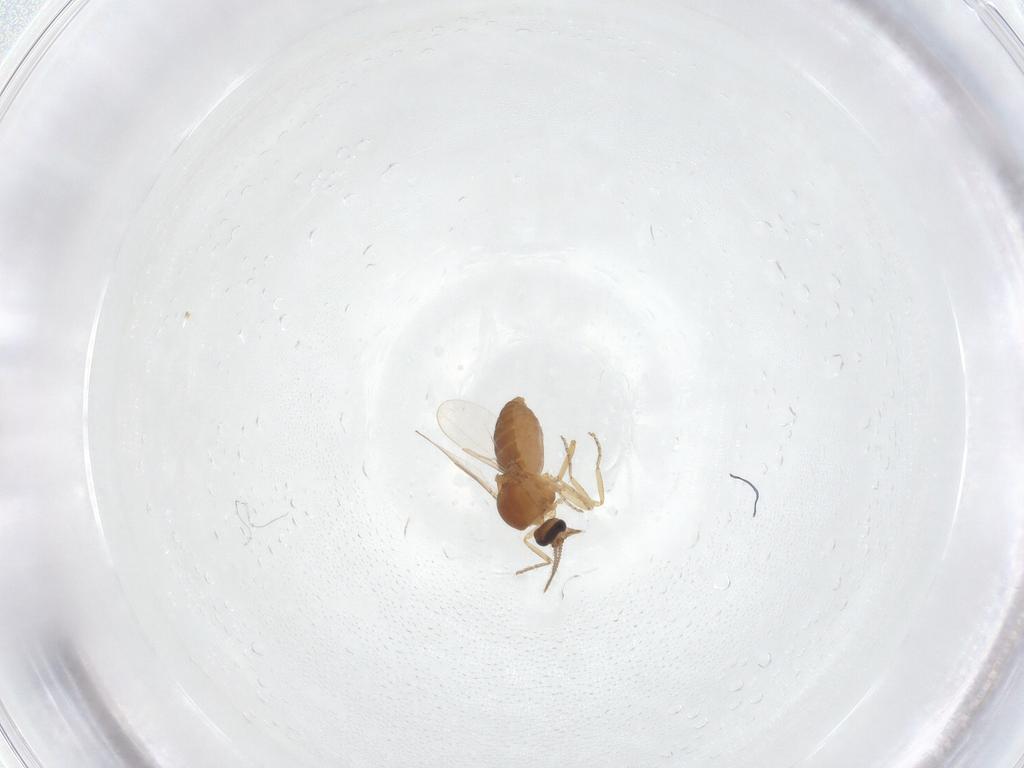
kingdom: Animalia
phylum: Arthropoda
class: Insecta
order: Diptera
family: Ceratopogonidae
